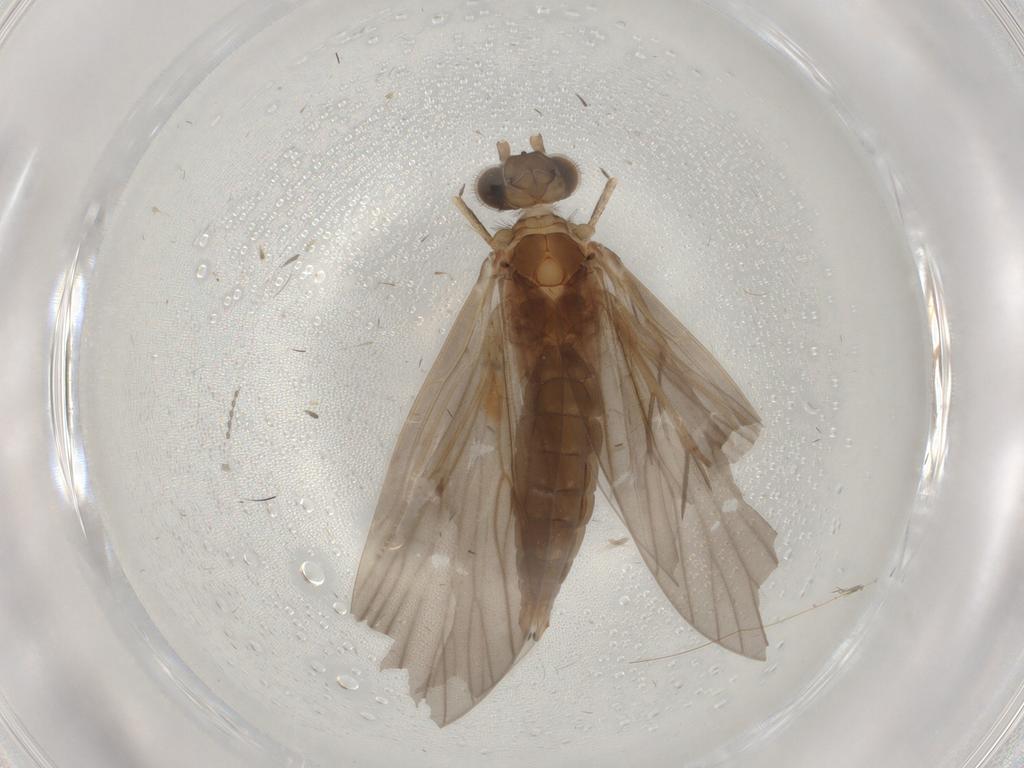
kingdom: Animalia
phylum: Arthropoda
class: Insecta
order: Trichoptera
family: Philopotamidae
